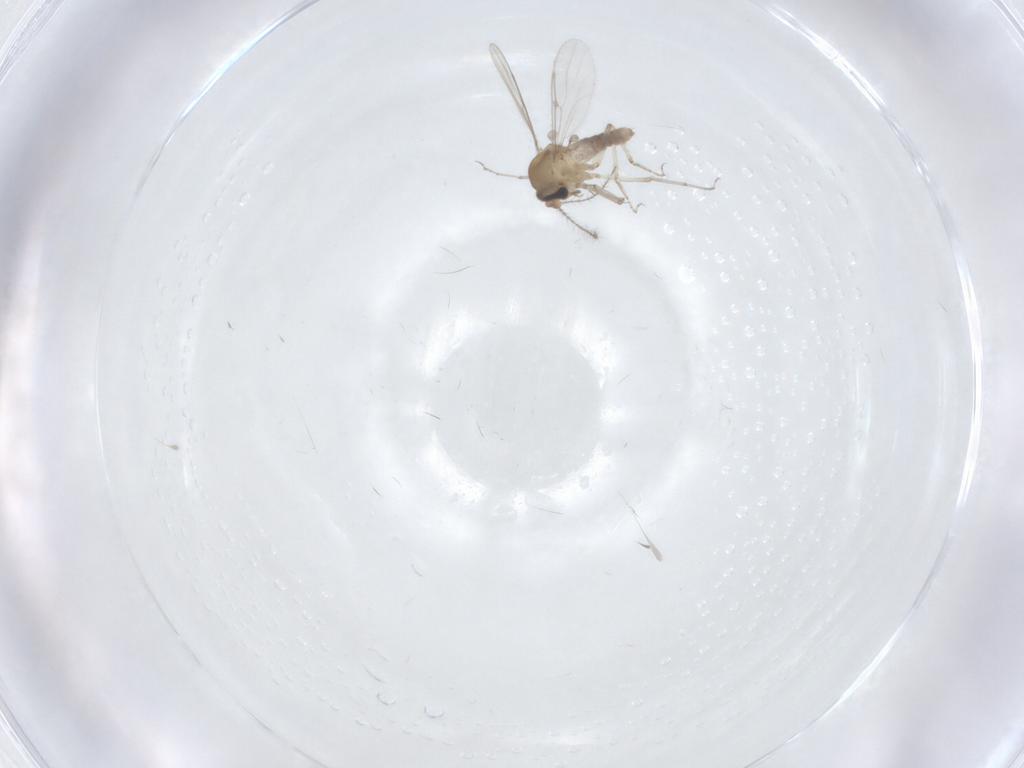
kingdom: Animalia
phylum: Arthropoda
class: Insecta
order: Diptera
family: Ceratopogonidae
